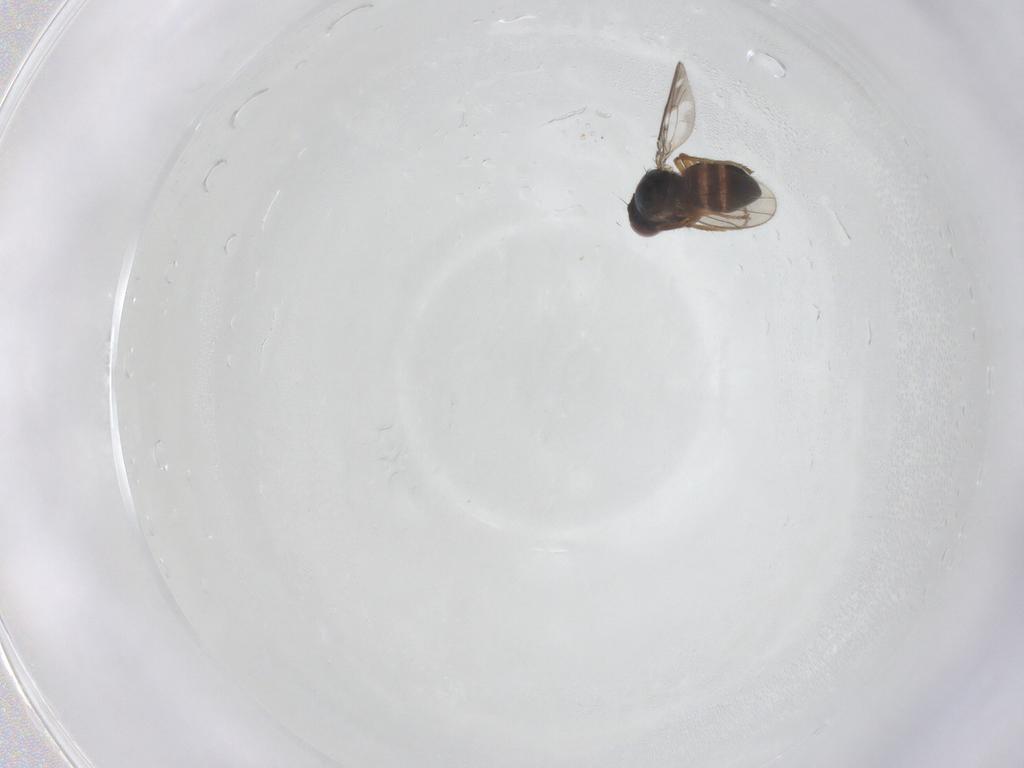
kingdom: Animalia
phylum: Arthropoda
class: Insecta
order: Diptera
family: Ephydridae
